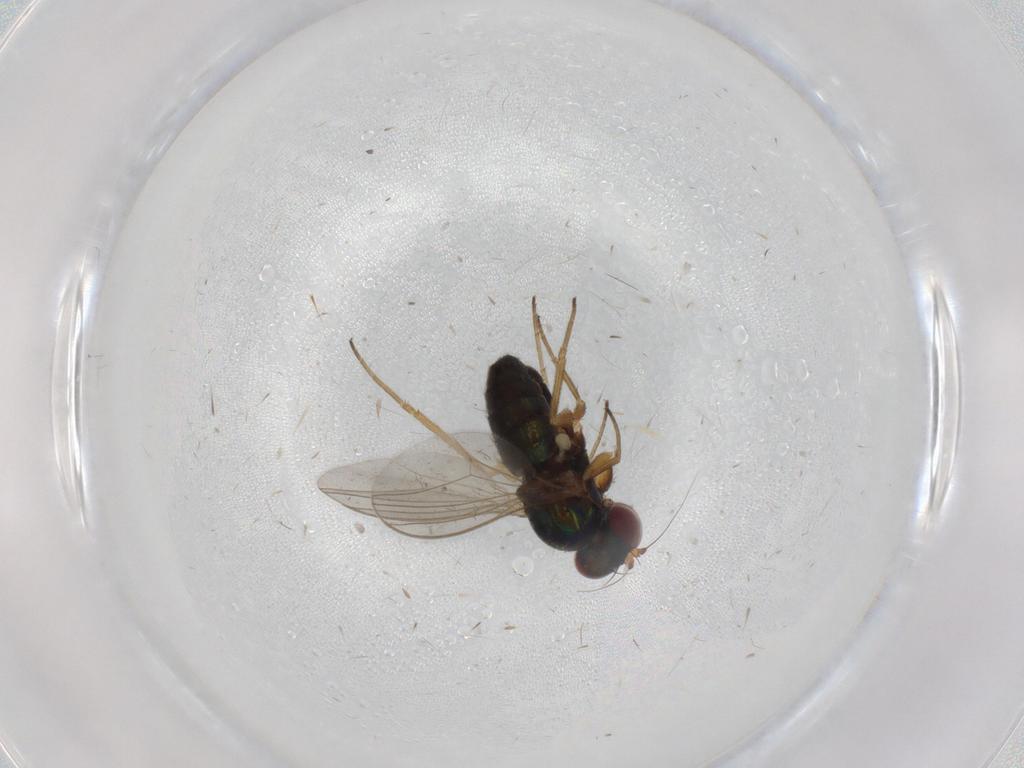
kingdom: Animalia
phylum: Arthropoda
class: Insecta
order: Diptera
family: Dolichopodidae
